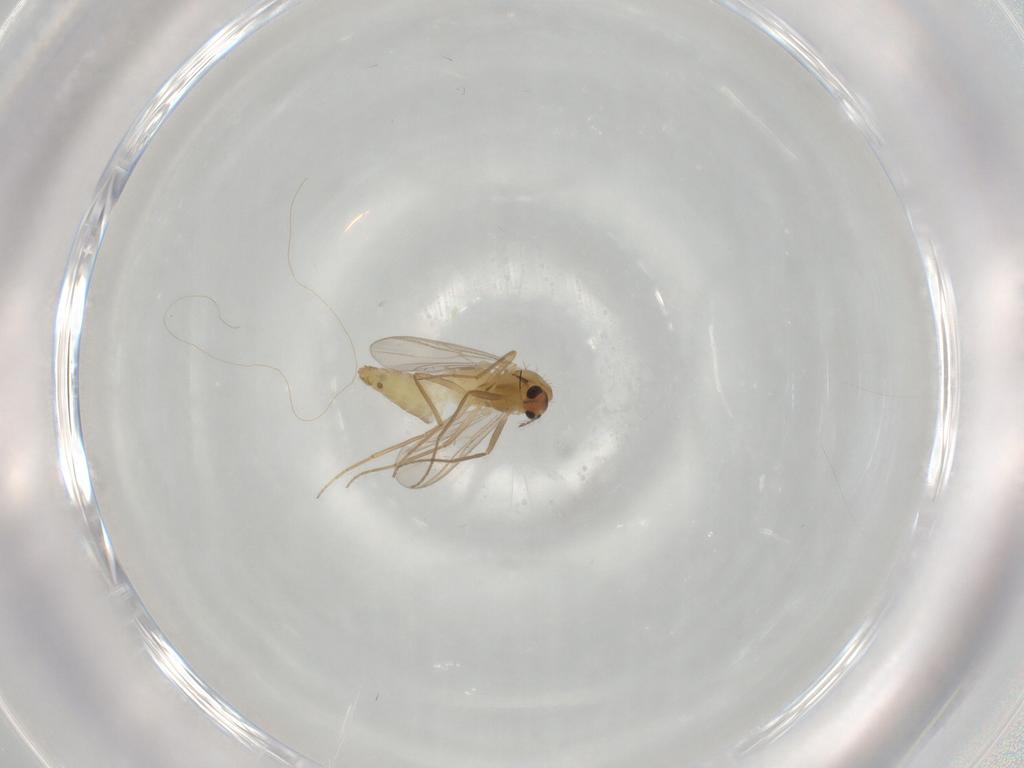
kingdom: Animalia
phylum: Arthropoda
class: Insecta
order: Diptera
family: Chironomidae
